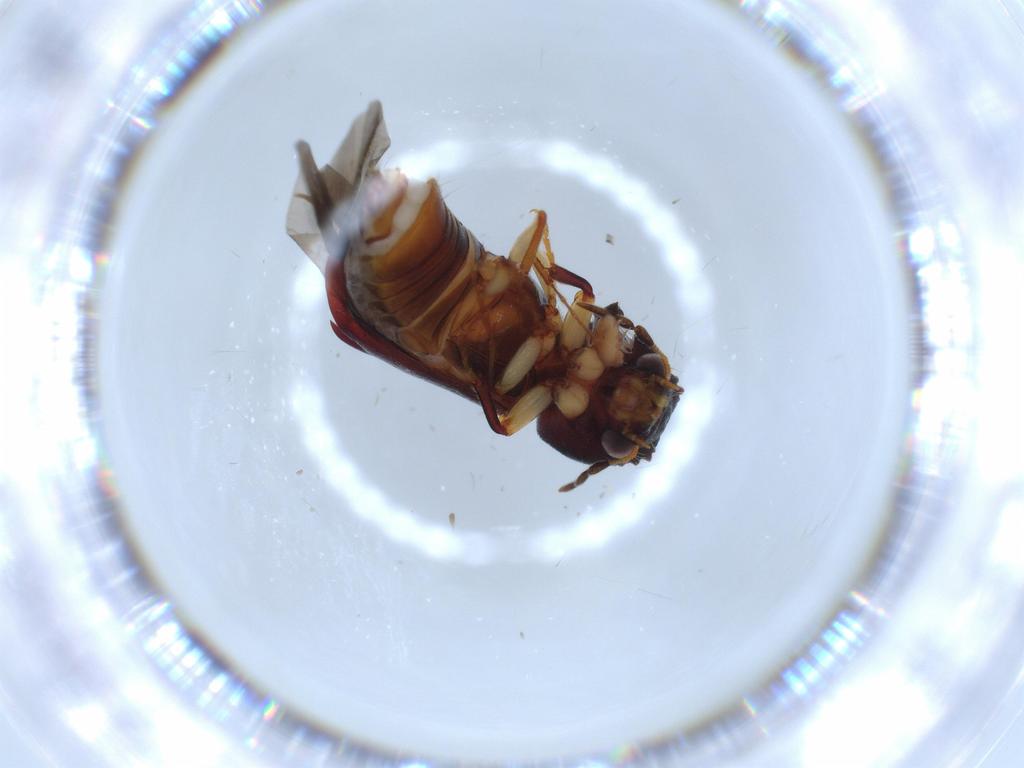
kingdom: Animalia
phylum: Arthropoda
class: Insecta
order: Coleoptera
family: Bostrichidae
